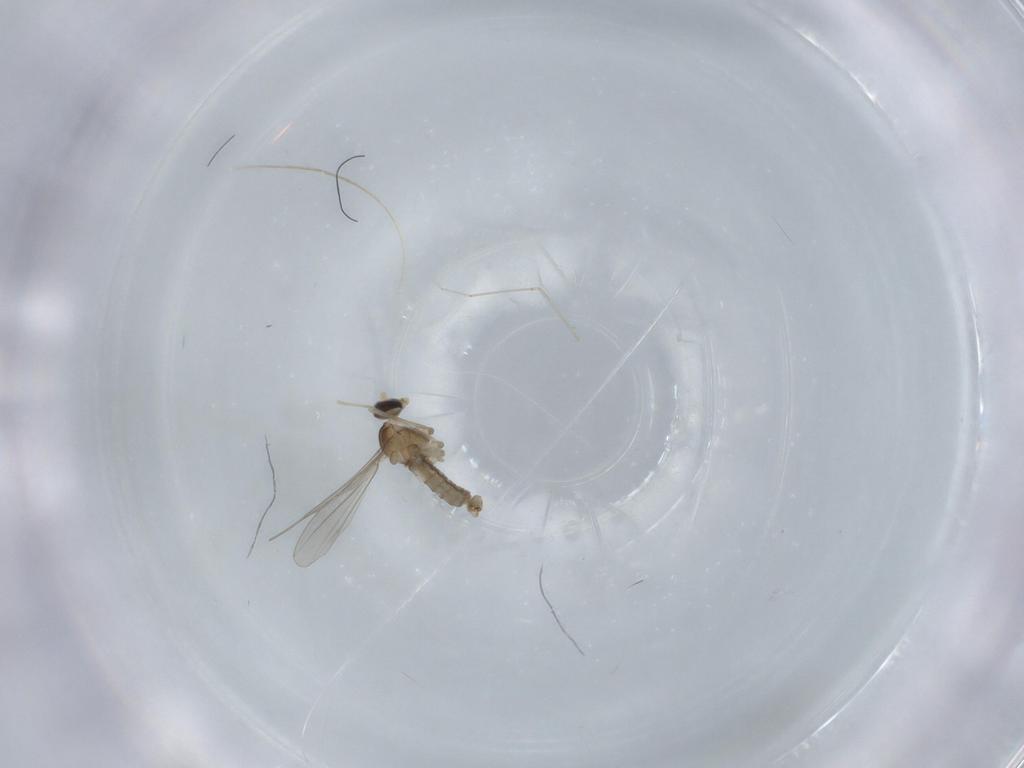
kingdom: Animalia
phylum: Arthropoda
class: Insecta
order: Diptera
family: Cecidomyiidae
